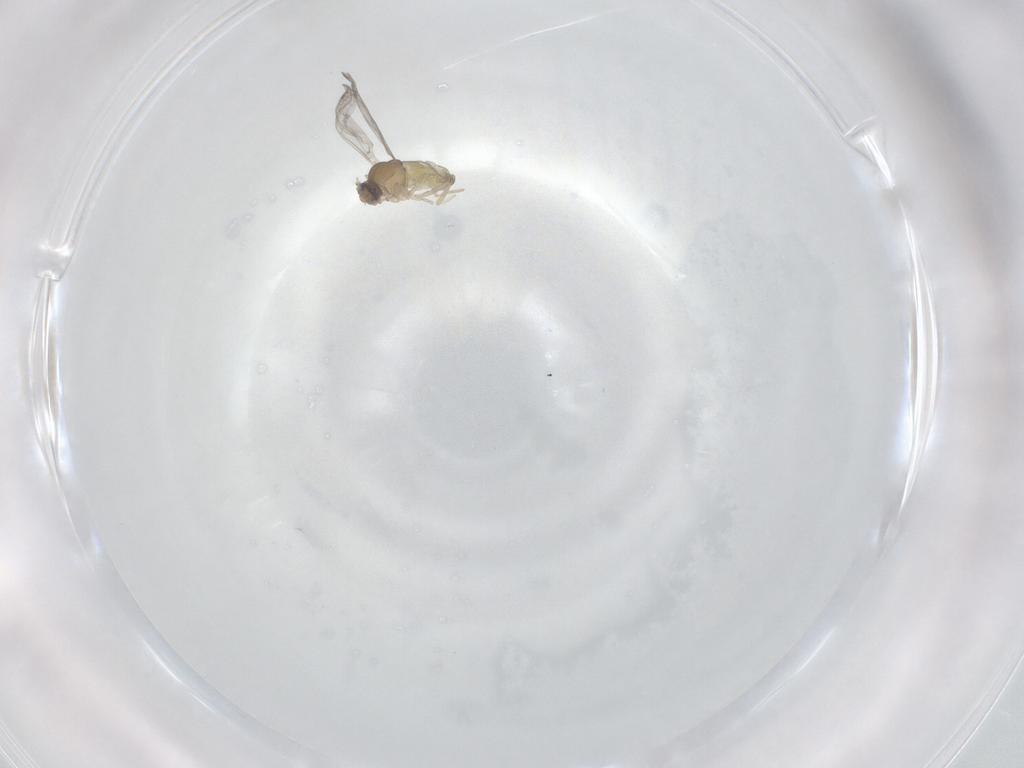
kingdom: Animalia
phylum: Arthropoda
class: Insecta
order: Diptera
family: Cecidomyiidae
